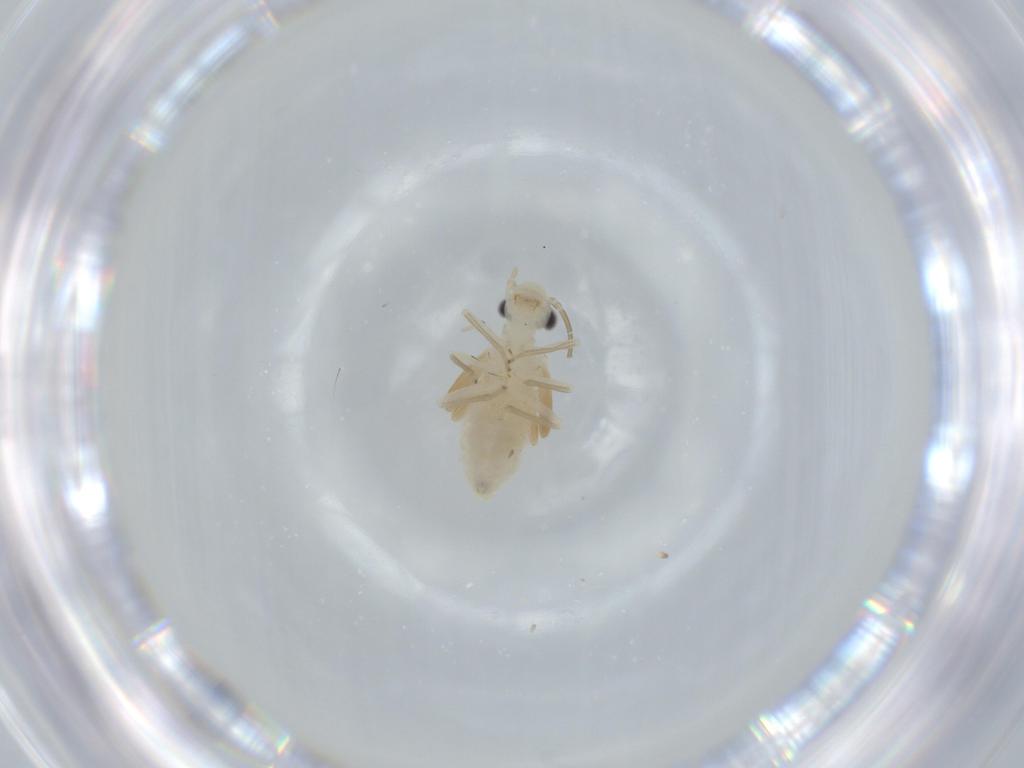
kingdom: Animalia
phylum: Arthropoda
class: Insecta
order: Psocodea
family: Caeciliusidae
